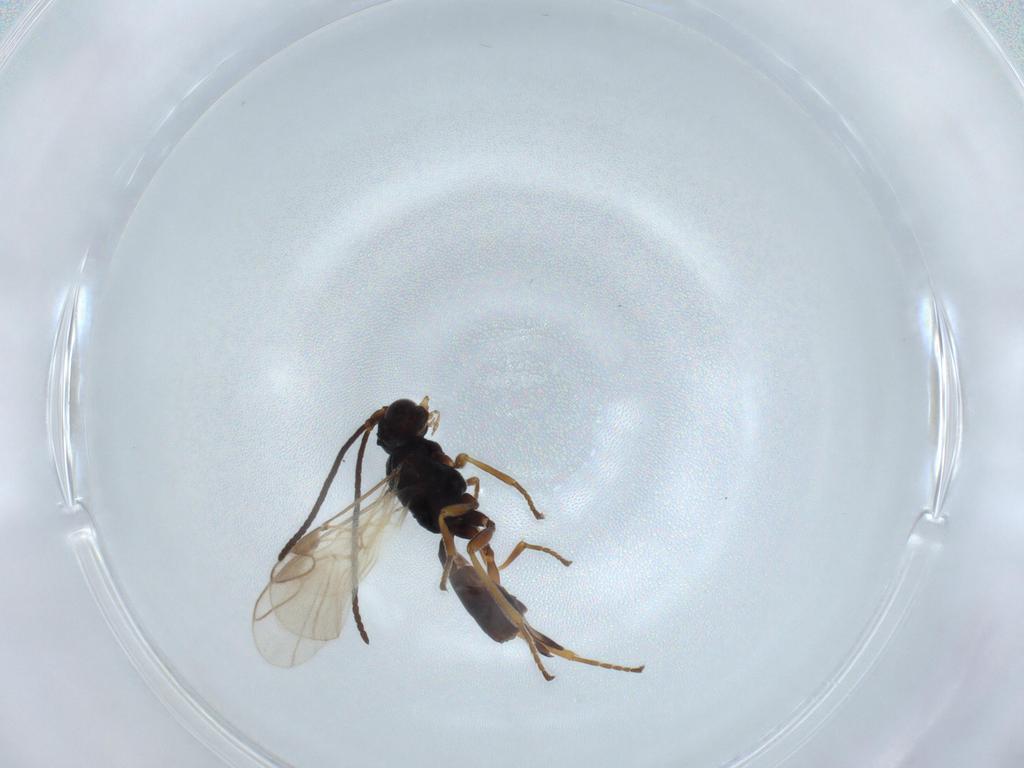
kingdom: Animalia
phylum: Arthropoda
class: Insecta
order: Hymenoptera
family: Braconidae
